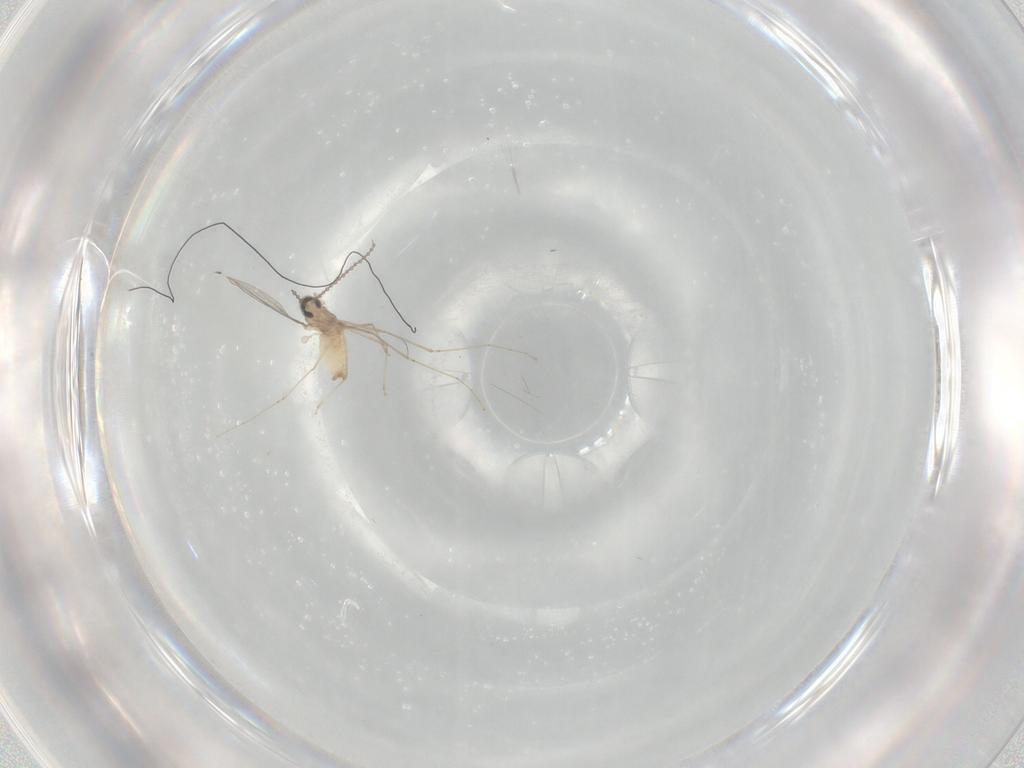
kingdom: Animalia
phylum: Arthropoda
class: Insecta
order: Diptera
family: Cecidomyiidae
